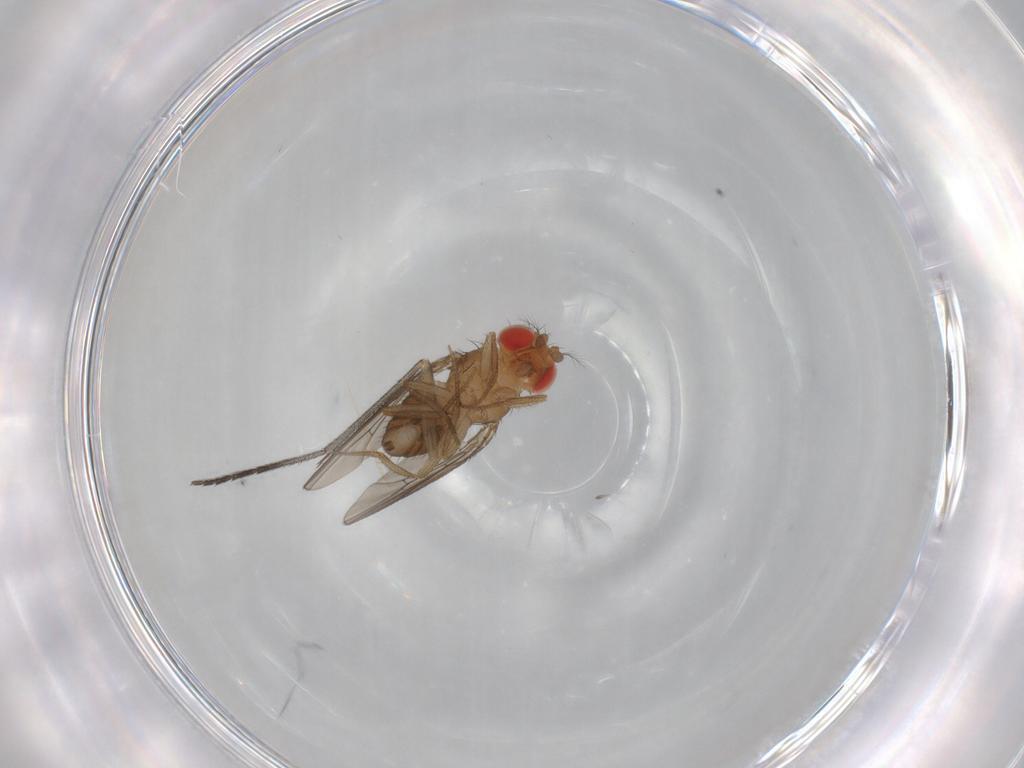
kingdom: Animalia
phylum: Arthropoda
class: Insecta
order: Diptera
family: Drosophilidae
